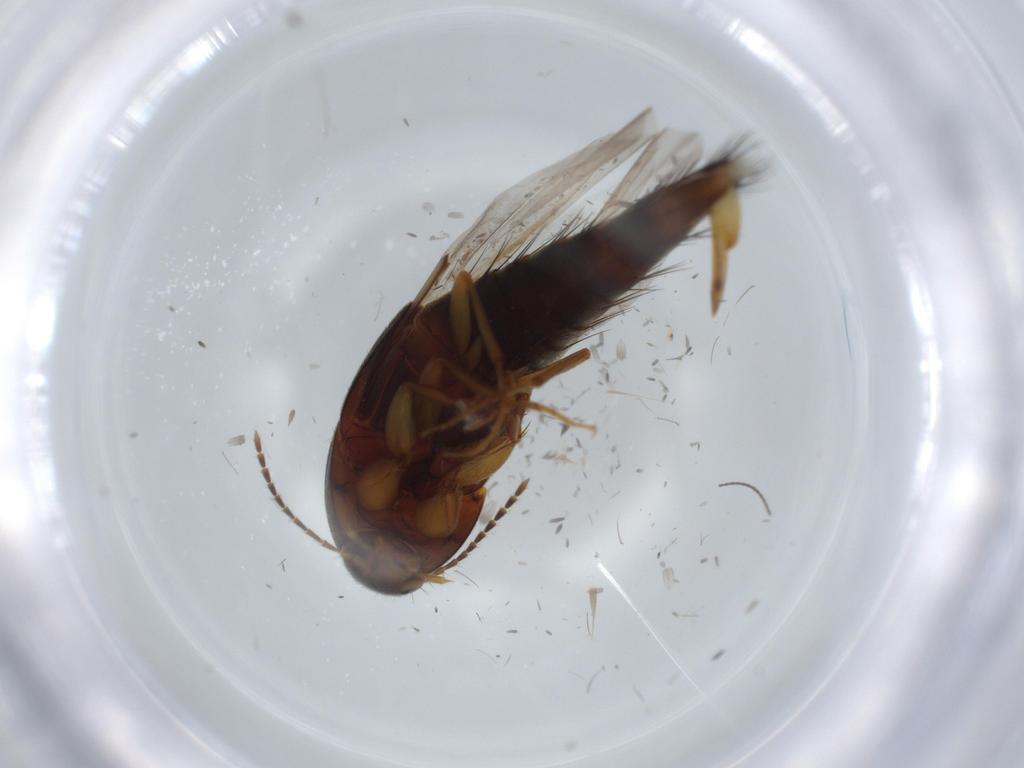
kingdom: Animalia
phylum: Arthropoda
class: Insecta
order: Coleoptera
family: Staphylinidae
